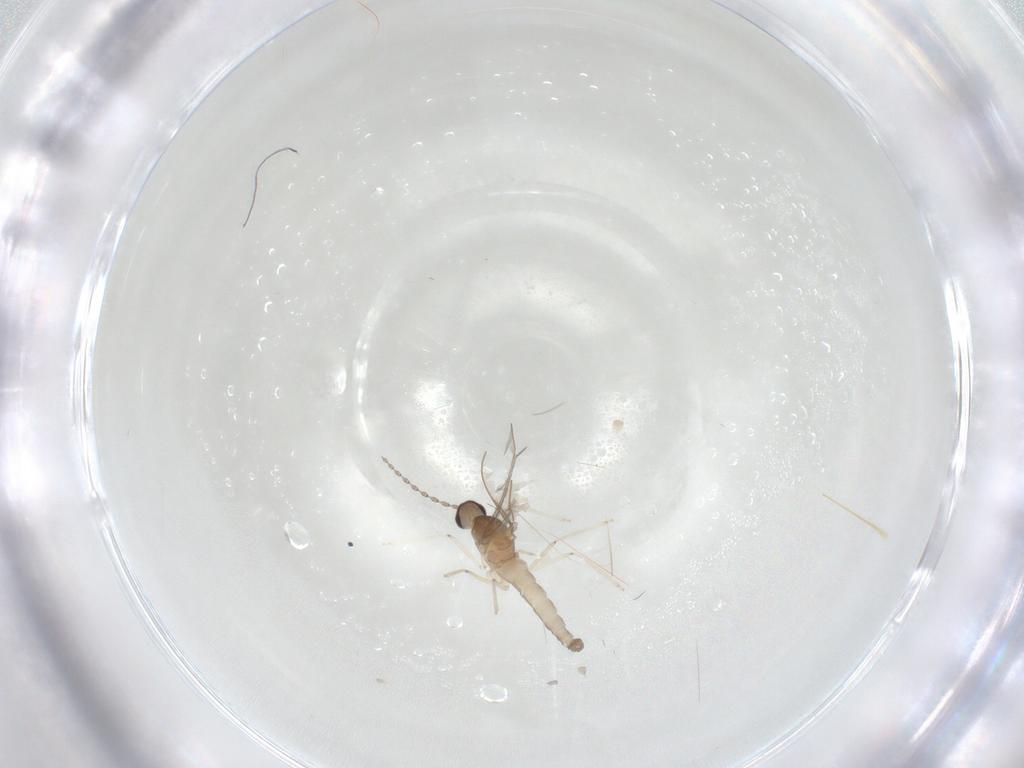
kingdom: Animalia
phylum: Arthropoda
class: Insecta
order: Diptera
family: Cecidomyiidae
